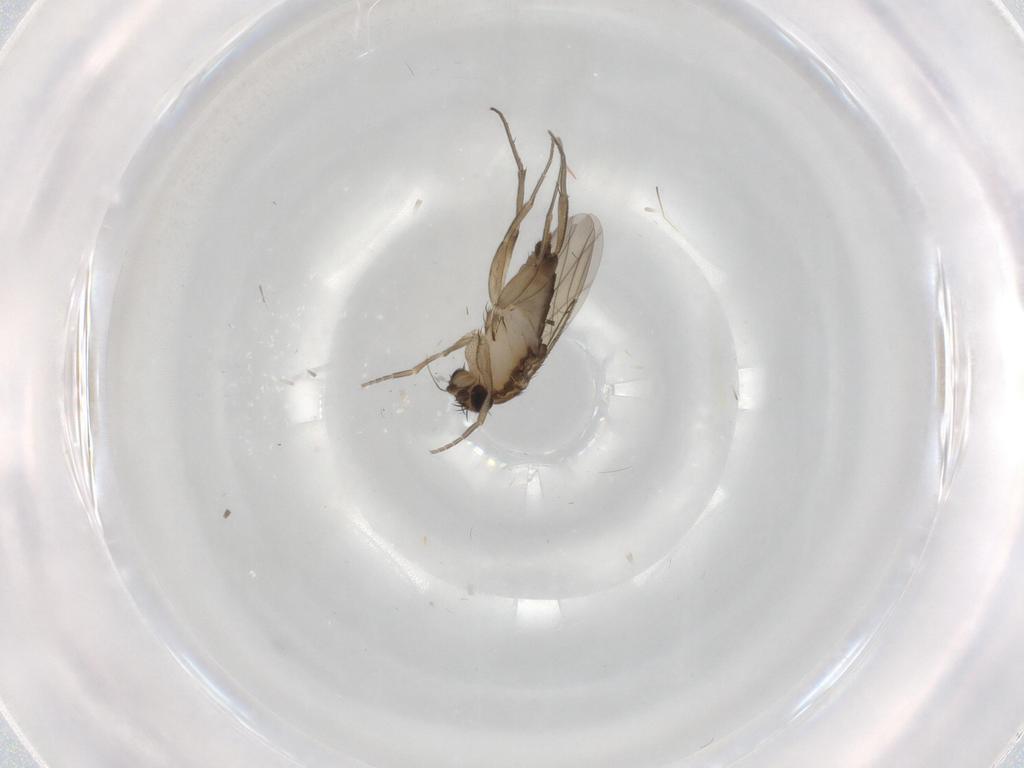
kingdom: Animalia
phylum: Arthropoda
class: Insecta
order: Diptera
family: Phoridae
